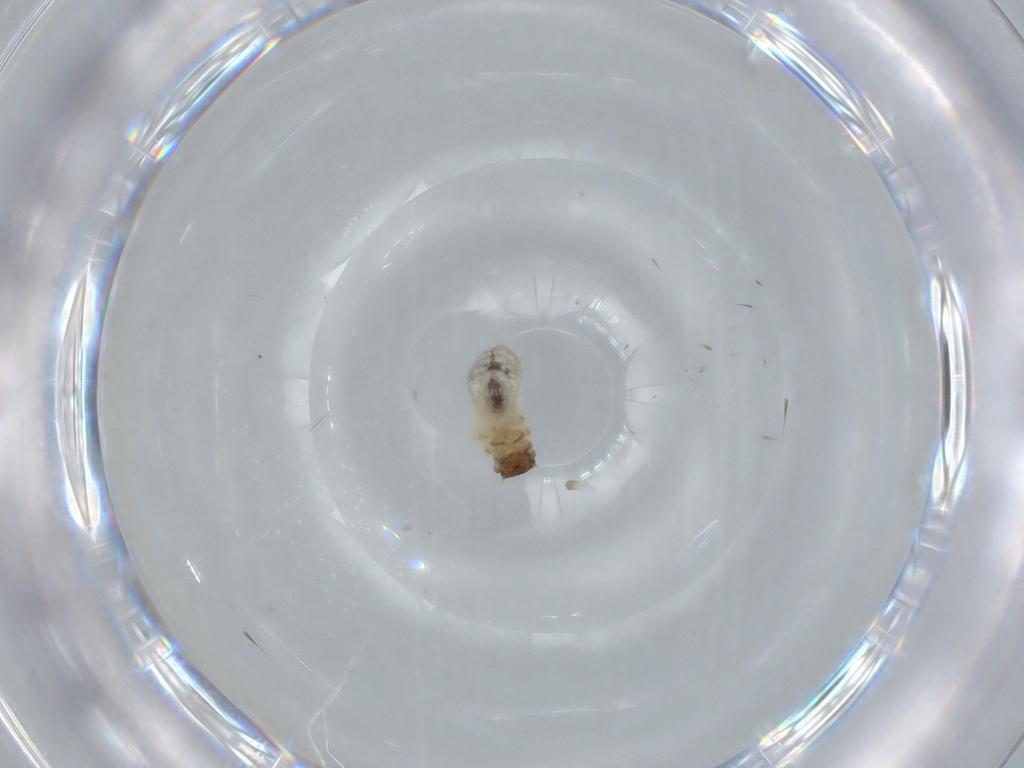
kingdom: Animalia
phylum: Arthropoda
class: Insecta
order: Coleoptera
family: Chrysomelidae
